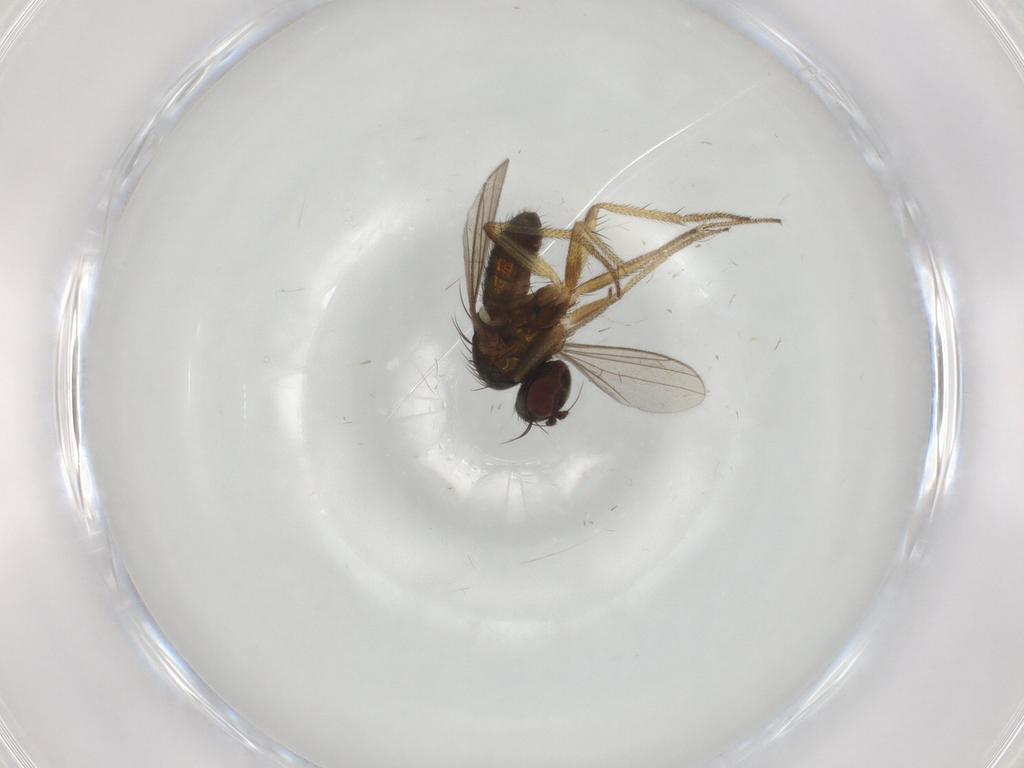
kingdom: Animalia
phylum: Arthropoda
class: Insecta
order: Diptera
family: Dolichopodidae
